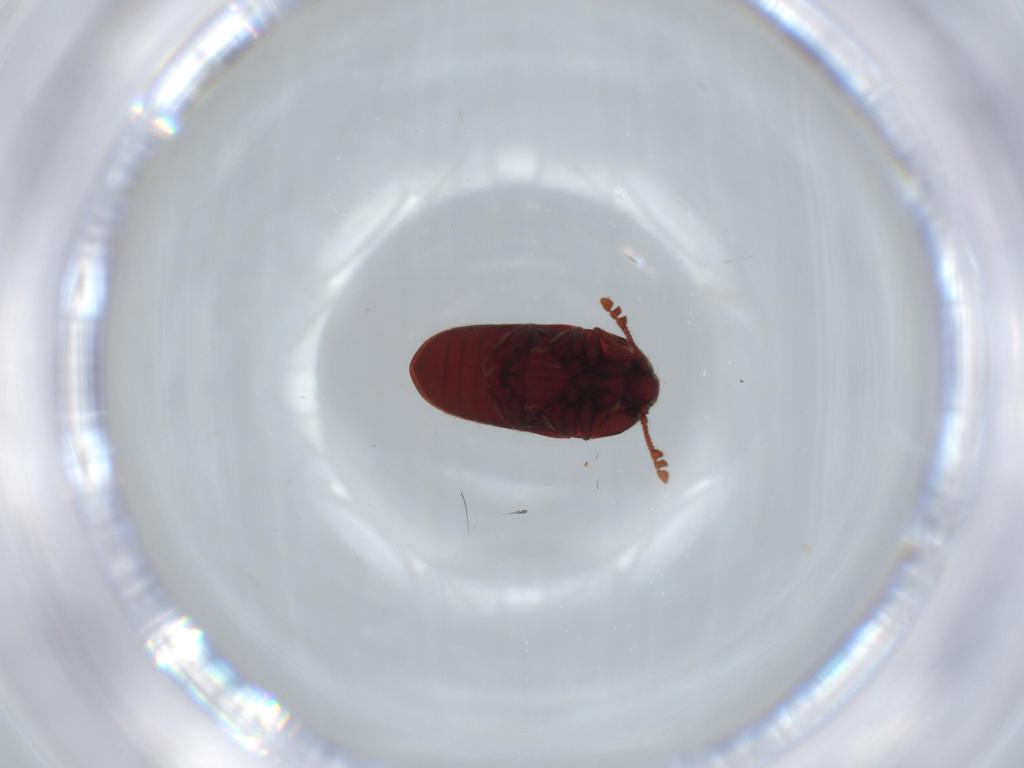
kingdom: Animalia
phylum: Arthropoda
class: Insecta
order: Coleoptera
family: Throscidae
